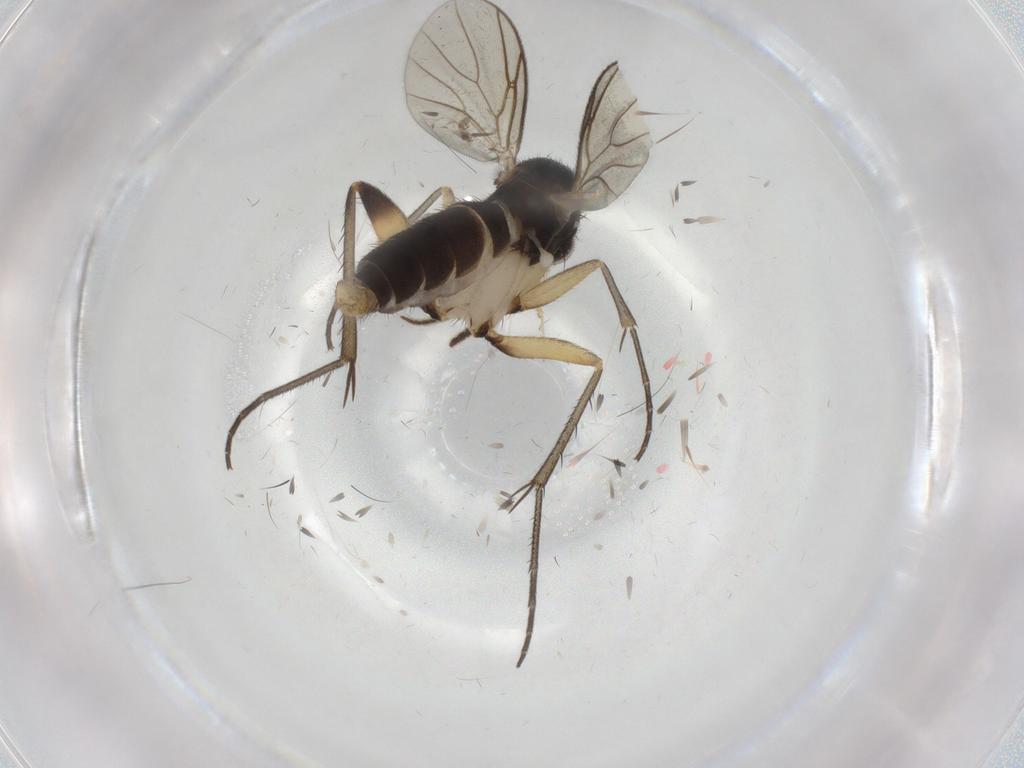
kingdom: Animalia
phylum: Arthropoda
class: Insecta
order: Diptera
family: Mycetophilidae
